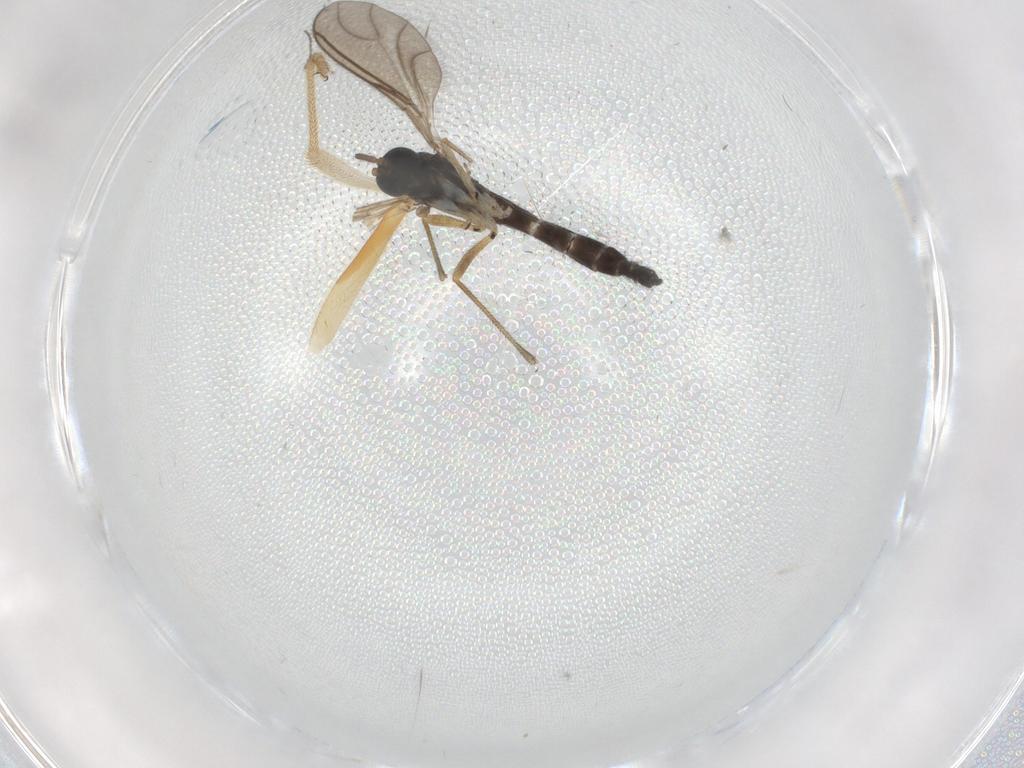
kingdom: Animalia
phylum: Arthropoda
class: Insecta
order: Diptera
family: Sciaridae
